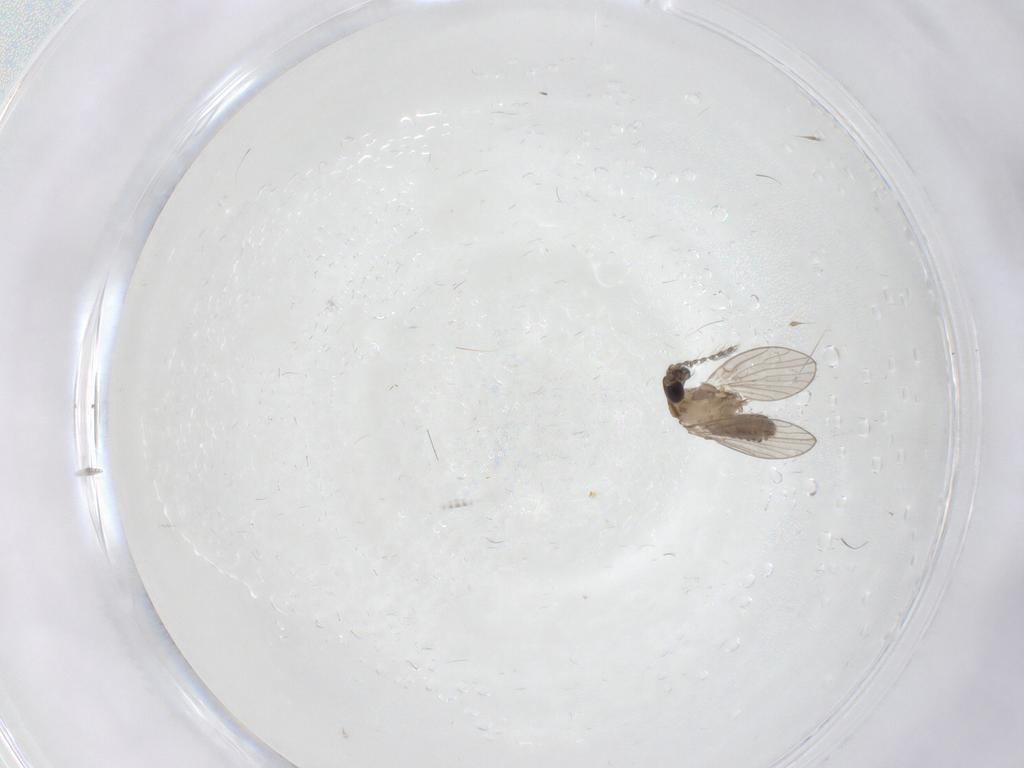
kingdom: Animalia
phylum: Arthropoda
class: Insecta
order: Diptera
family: Psychodidae
